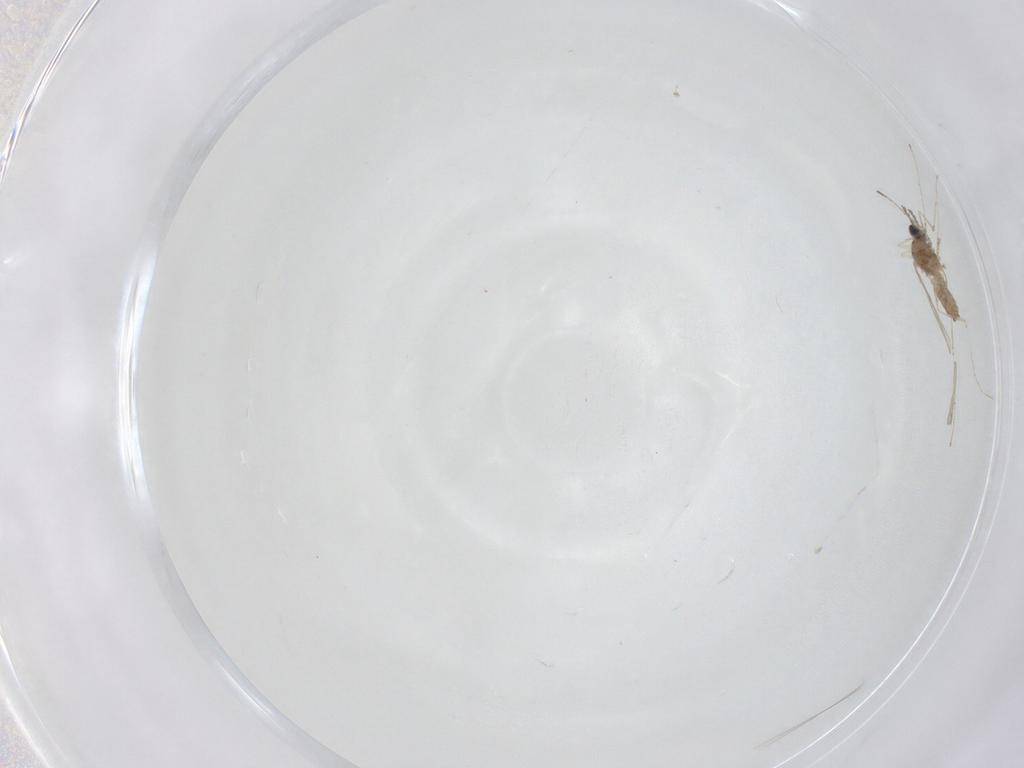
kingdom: Animalia
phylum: Arthropoda
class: Insecta
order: Diptera
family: Cecidomyiidae
